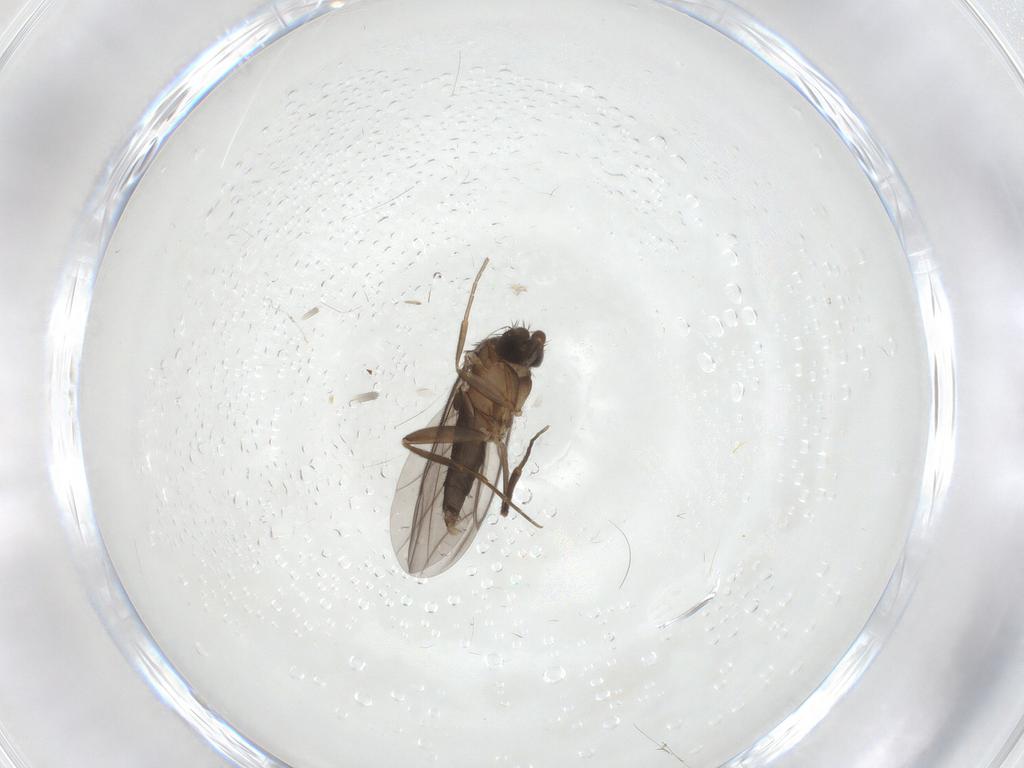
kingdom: Animalia
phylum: Arthropoda
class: Insecta
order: Diptera
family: Chironomidae
